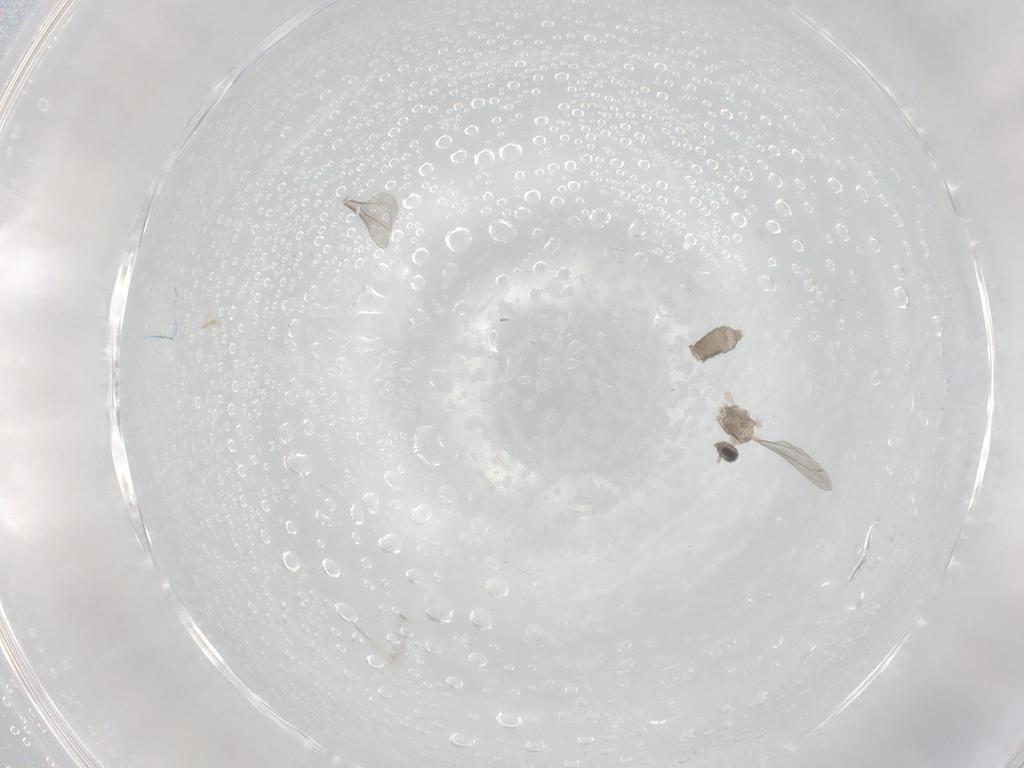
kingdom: Animalia
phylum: Arthropoda
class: Insecta
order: Diptera
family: Cecidomyiidae
